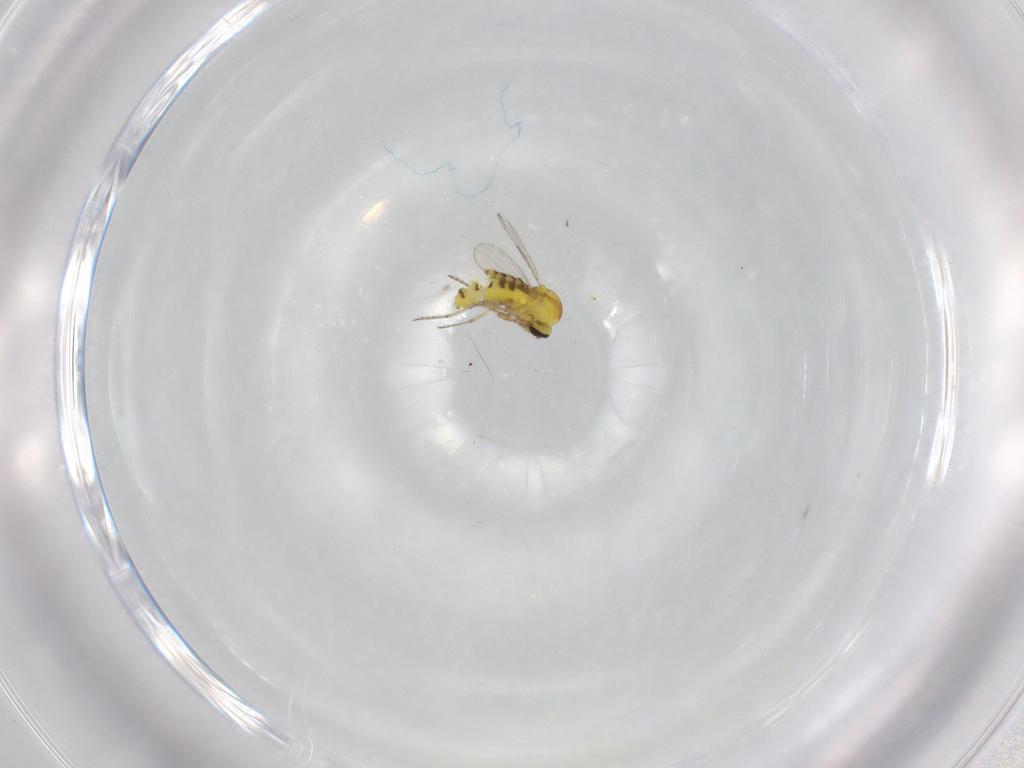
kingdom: Animalia
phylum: Arthropoda
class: Insecta
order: Diptera
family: Ceratopogonidae
